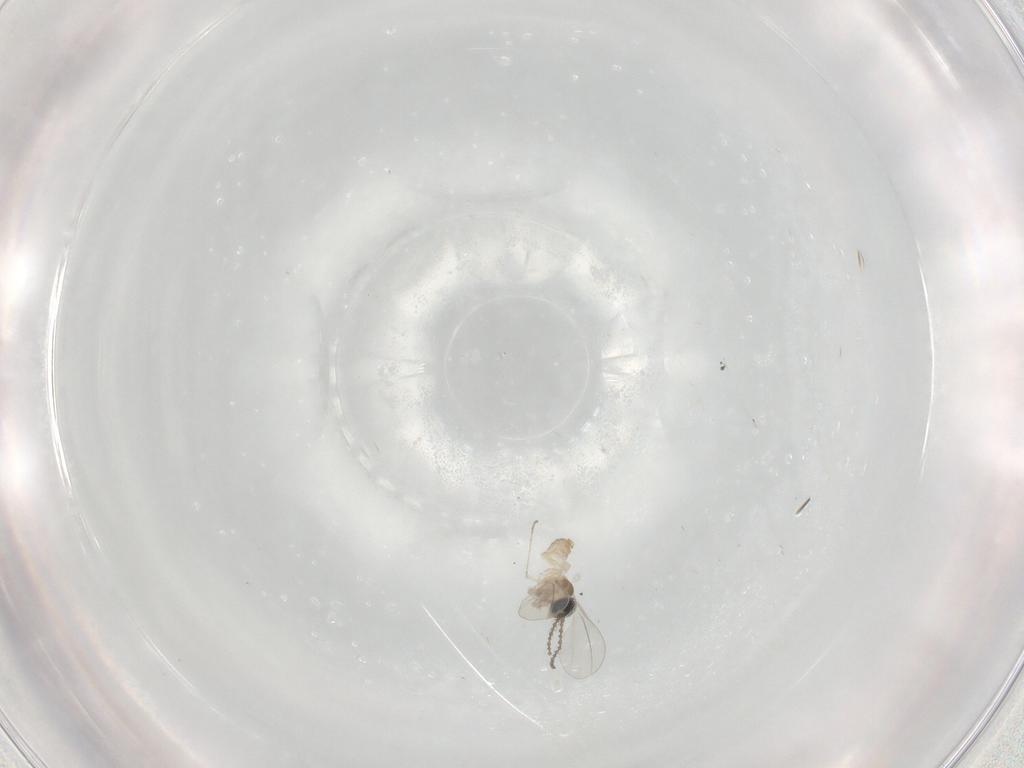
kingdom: Animalia
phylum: Arthropoda
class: Insecta
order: Diptera
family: Cecidomyiidae
